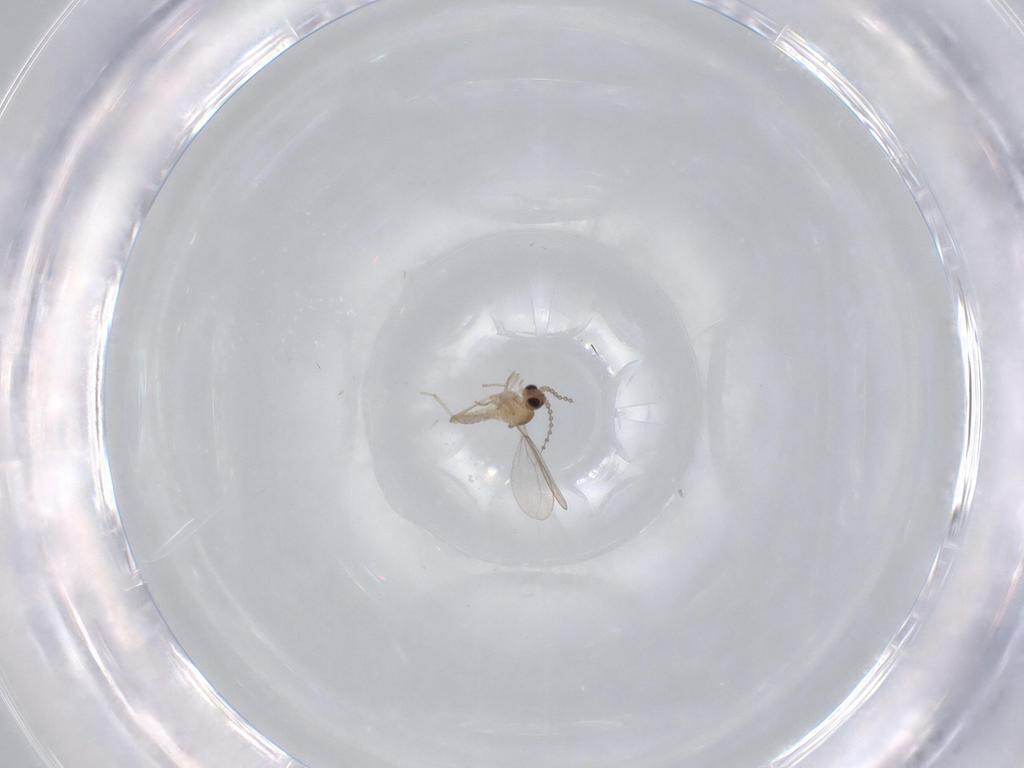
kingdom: Animalia
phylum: Arthropoda
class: Insecta
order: Diptera
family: Cecidomyiidae
